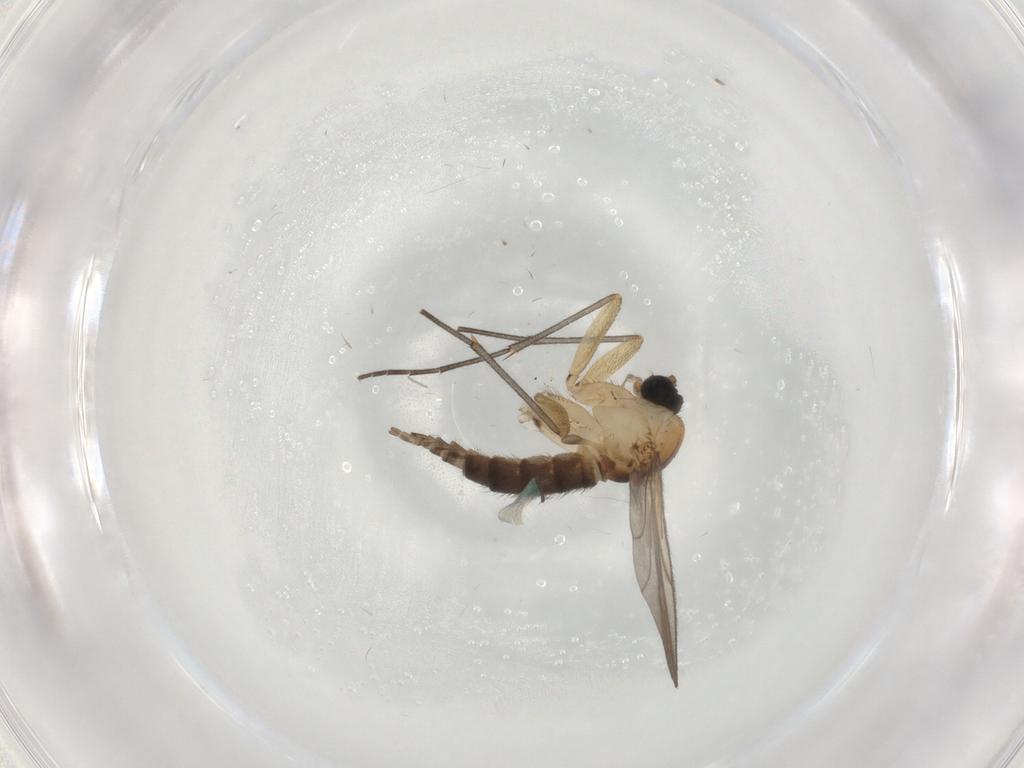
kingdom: Animalia
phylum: Arthropoda
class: Insecta
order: Diptera
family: Sciaridae
